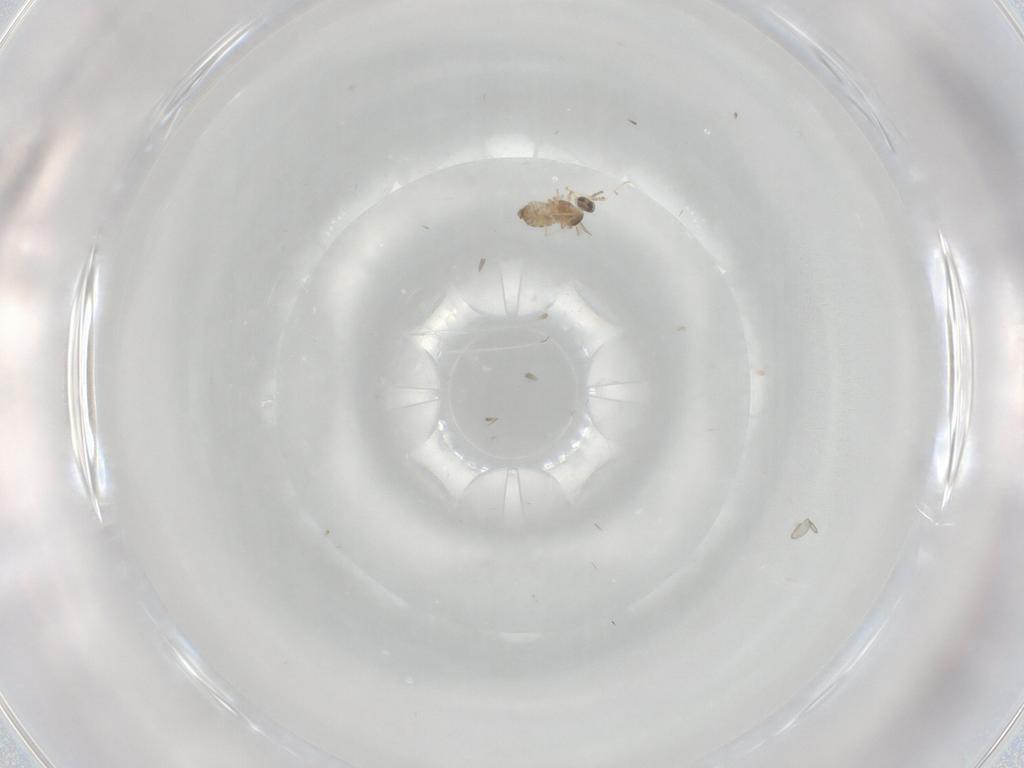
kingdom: Animalia
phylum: Arthropoda
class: Insecta
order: Diptera
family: Cecidomyiidae
